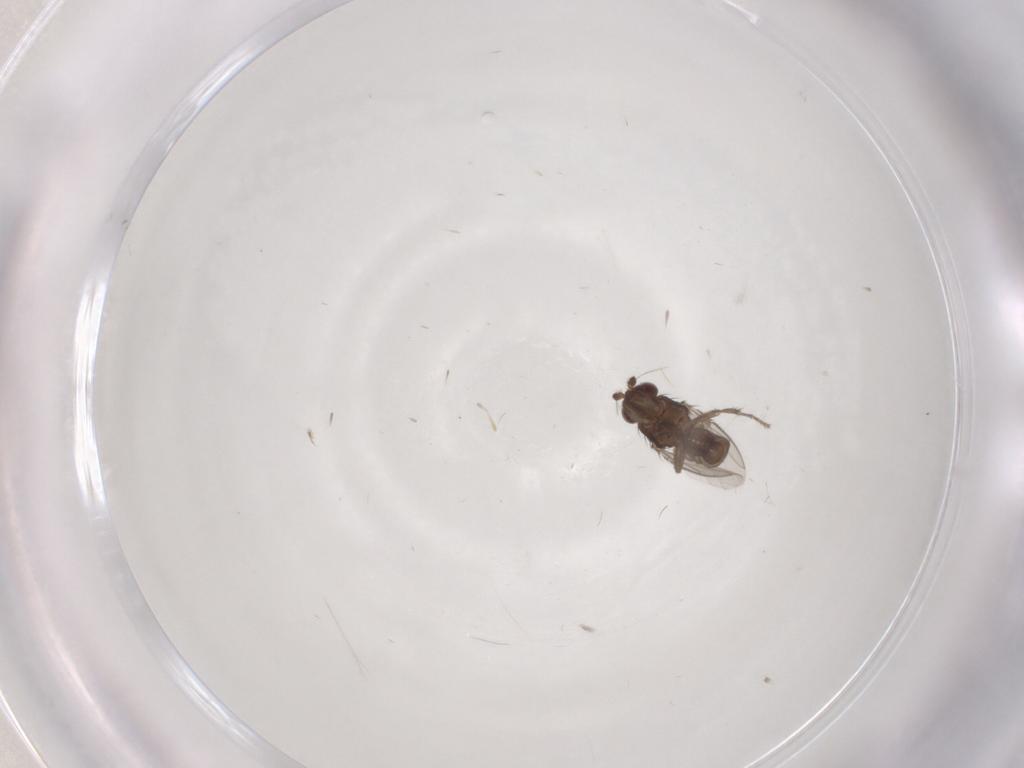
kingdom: Animalia
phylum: Arthropoda
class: Insecta
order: Diptera
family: Sphaeroceridae
